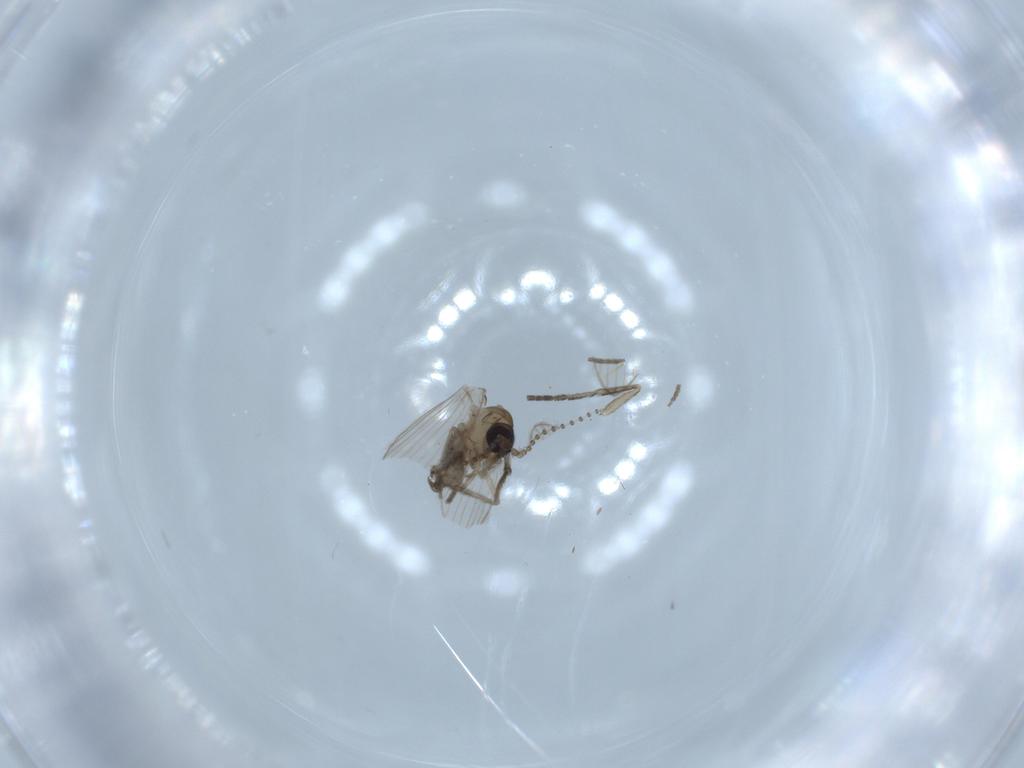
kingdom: Animalia
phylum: Arthropoda
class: Insecta
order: Diptera
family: Psychodidae
